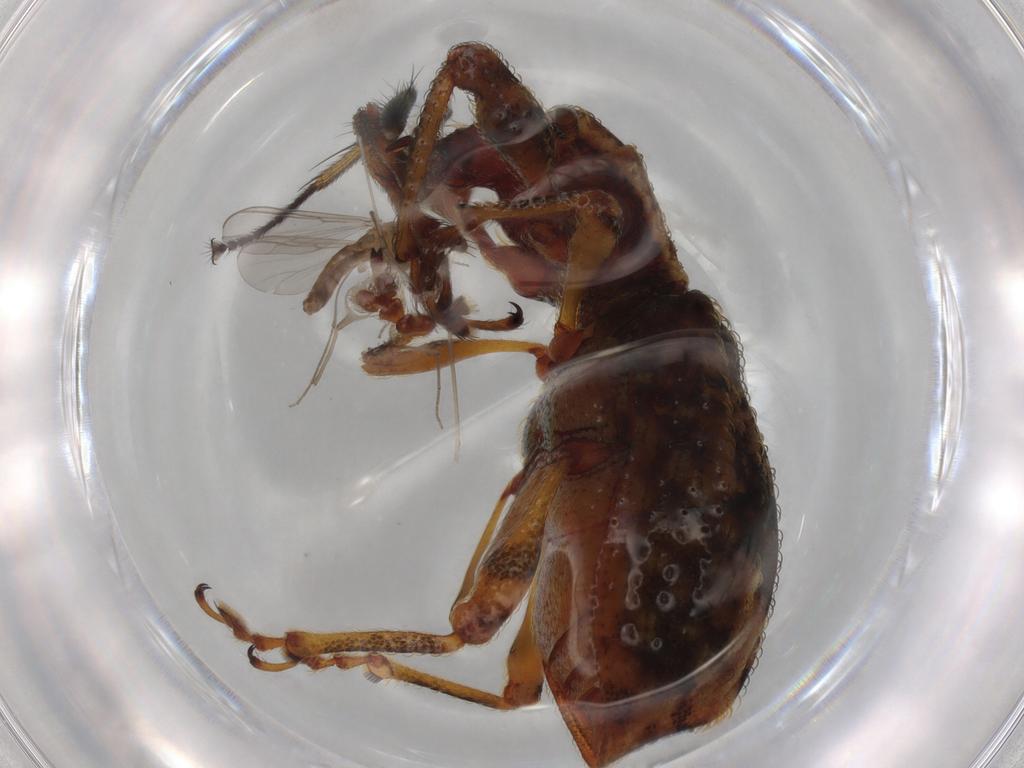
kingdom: Animalia
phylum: Arthropoda
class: Insecta
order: Diptera
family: Muscidae
